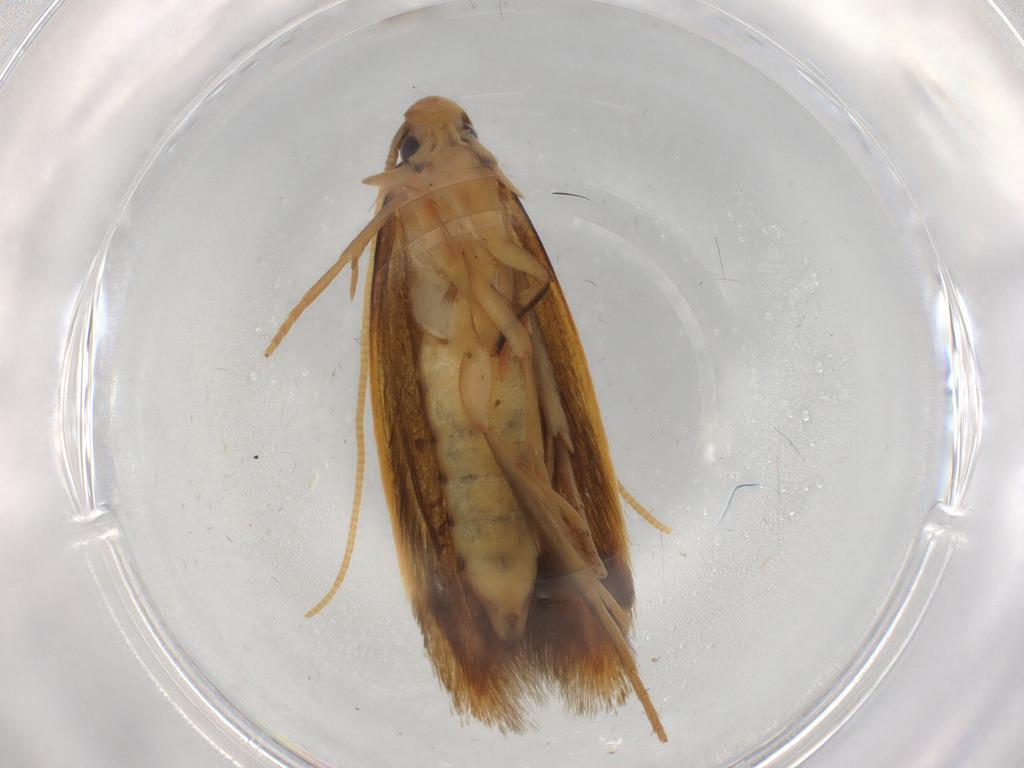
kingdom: Animalia
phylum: Arthropoda
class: Insecta
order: Lepidoptera
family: Tineidae
